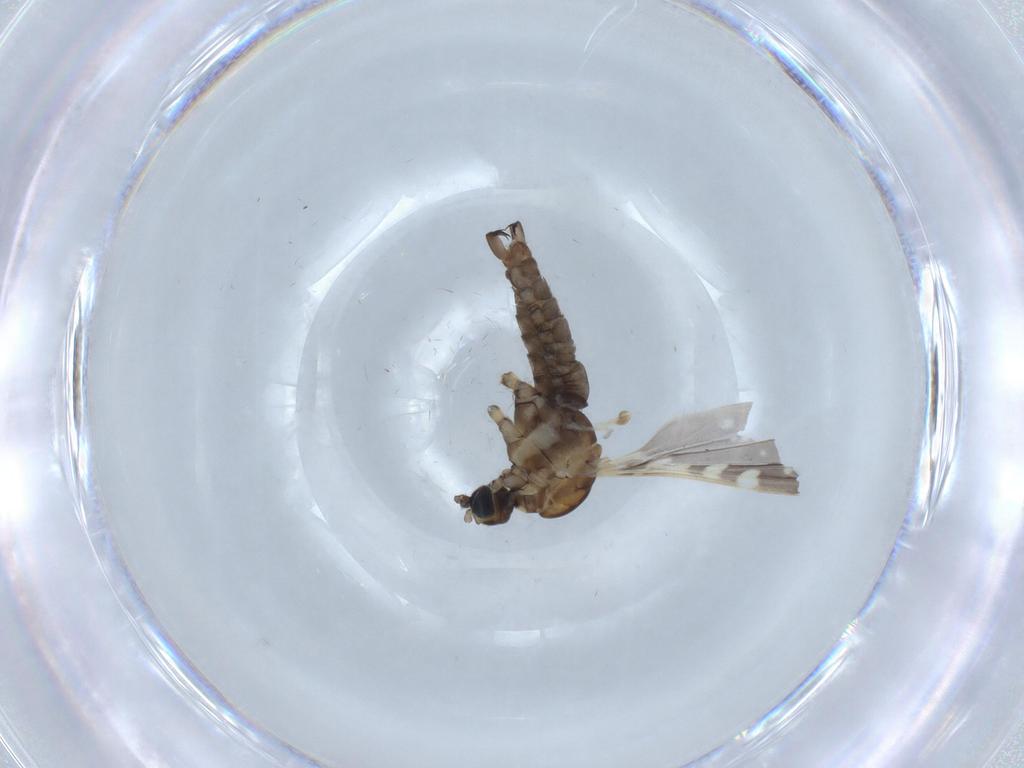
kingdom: Animalia
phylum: Arthropoda
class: Insecta
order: Diptera
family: Limoniidae
